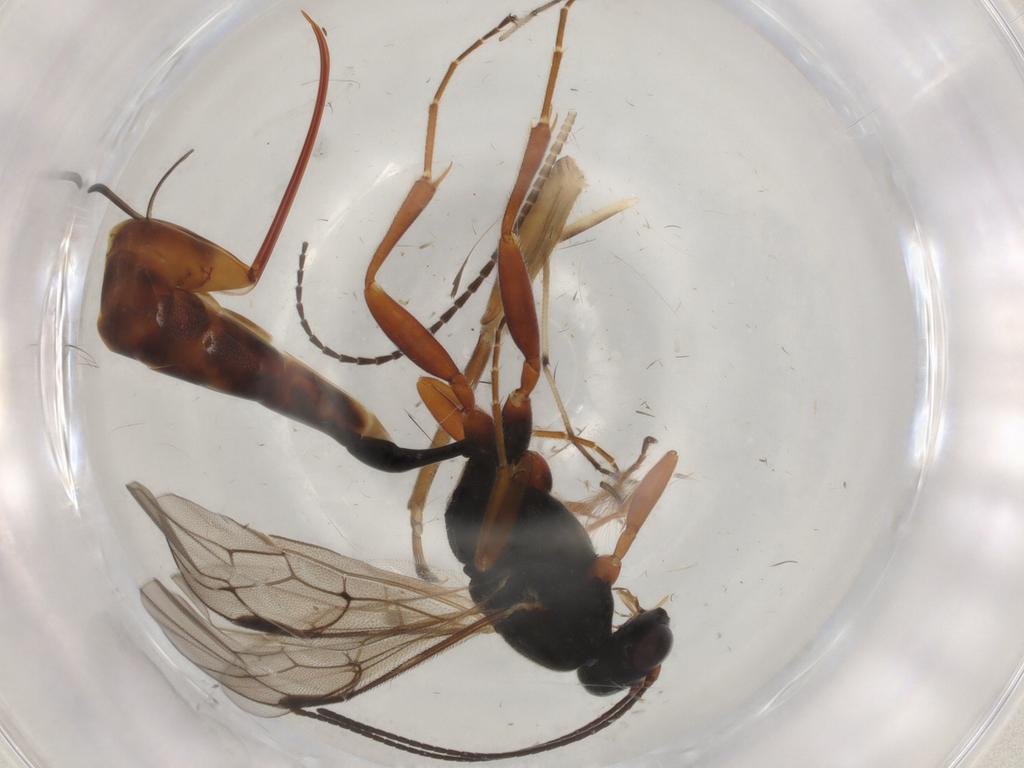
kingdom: Animalia
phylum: Arthropoda
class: Insecta
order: Hymenoptera
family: Ichneumonidae
